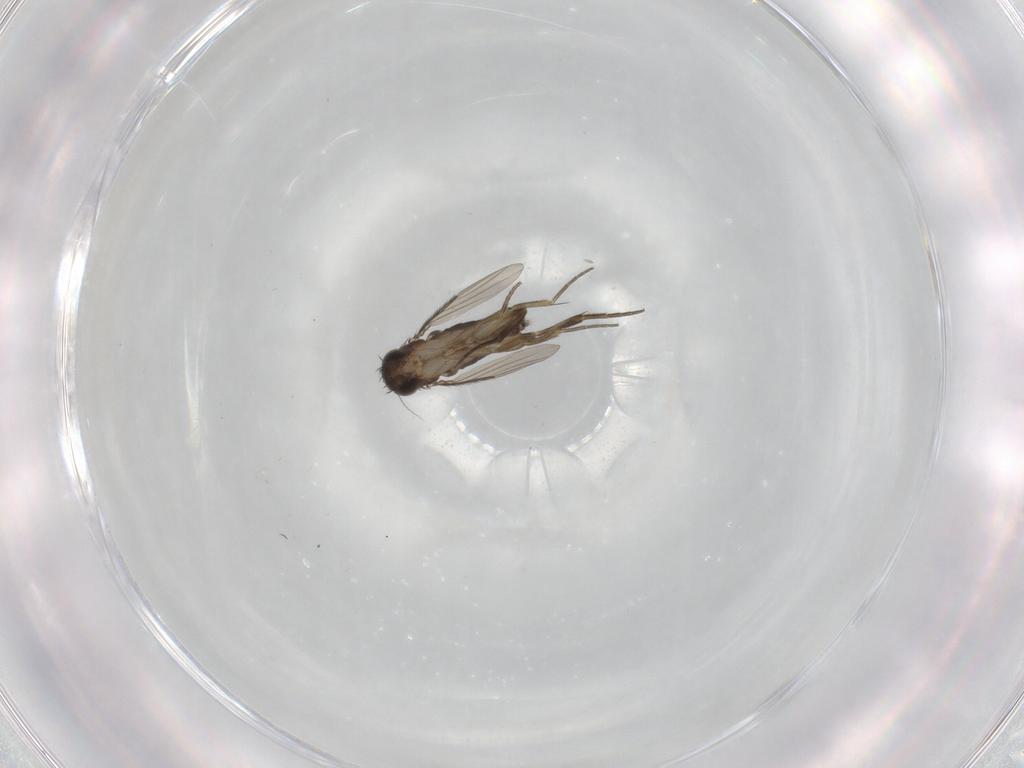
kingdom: Animalia
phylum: Arthropoda
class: Insecta
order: Diptera
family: Phoridae
